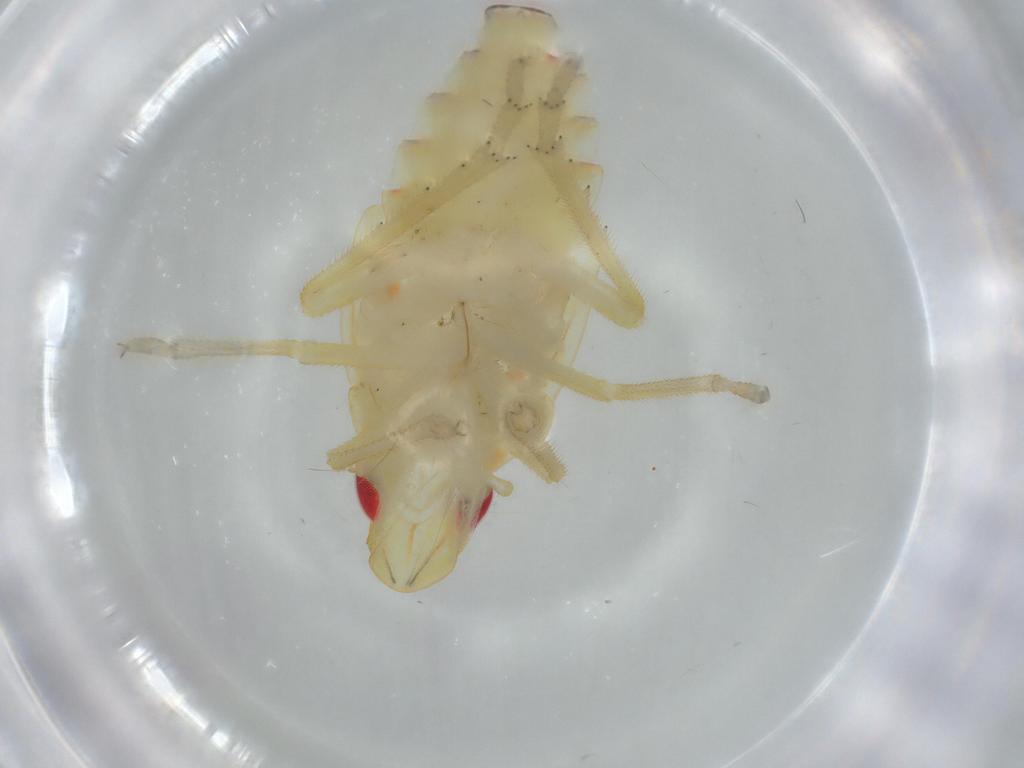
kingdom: Animalia
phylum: Arthropoda
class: Insecta
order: Hemiptera
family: Tropiduchidae
